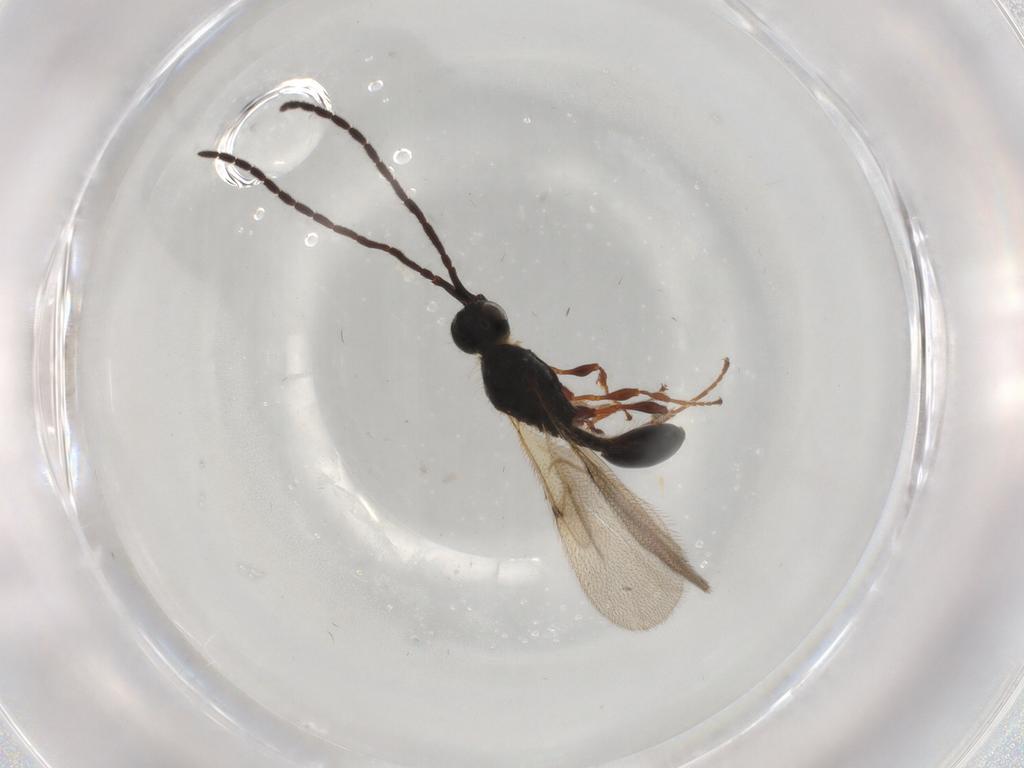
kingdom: Animalia
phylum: Arthropoda
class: Insecta
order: Hymenoptera
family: Diapriidae
